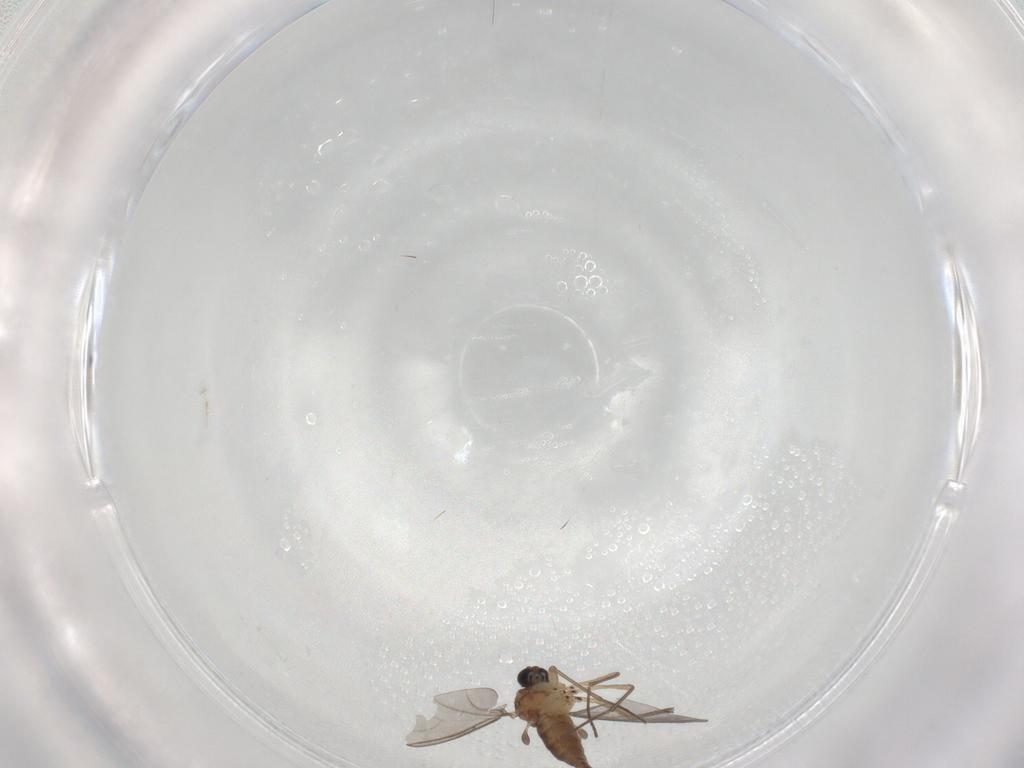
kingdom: Animalia
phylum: Arthropoda
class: Insecta
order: Diptera
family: Sciaridae
